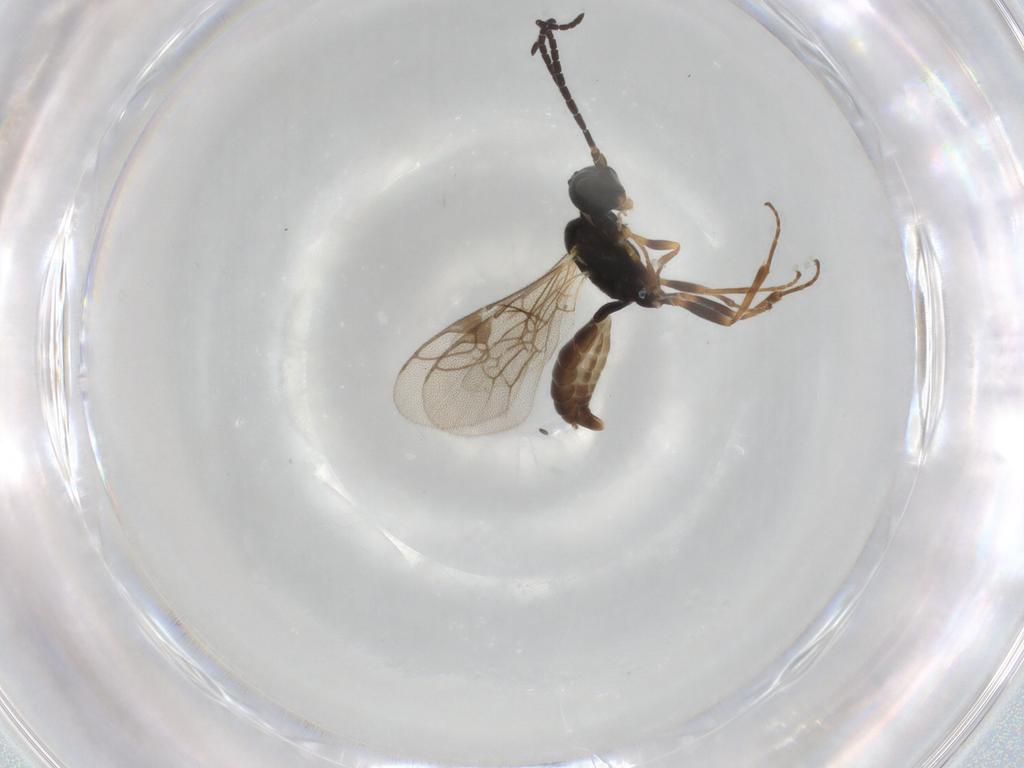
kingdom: Animalia
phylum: Arthropoda
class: Insecta
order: Hymenoptera
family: Ichneumonidae
